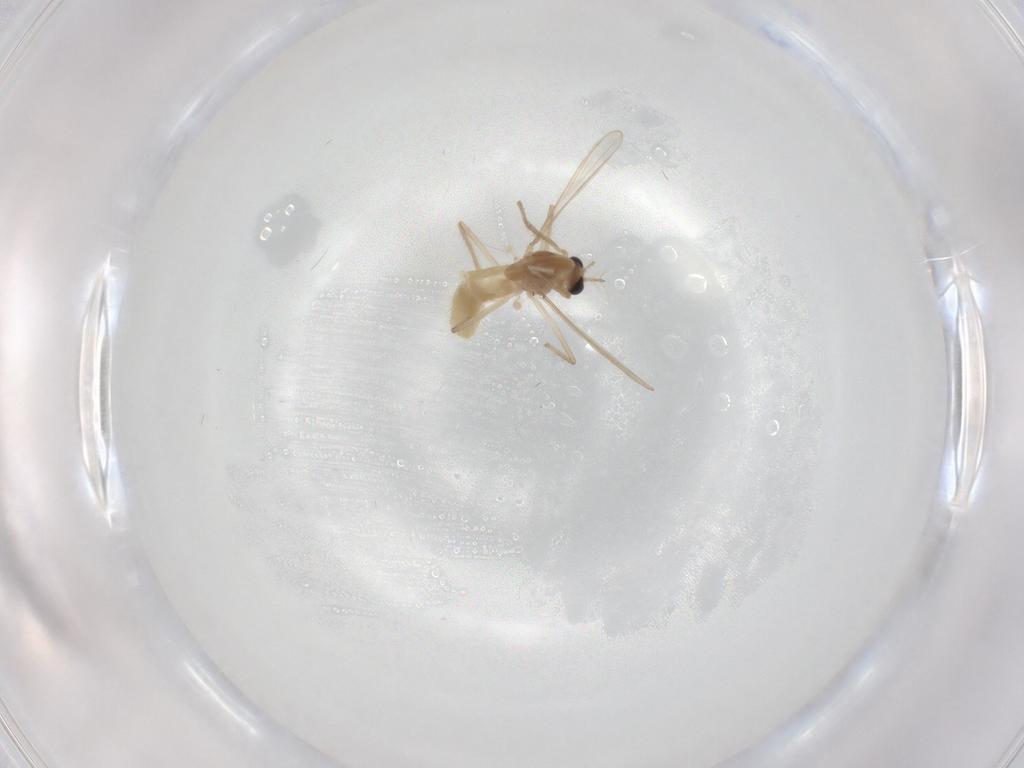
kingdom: Animalia
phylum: Arthropoda
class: Insecta
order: Diptera
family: Chironomidae
